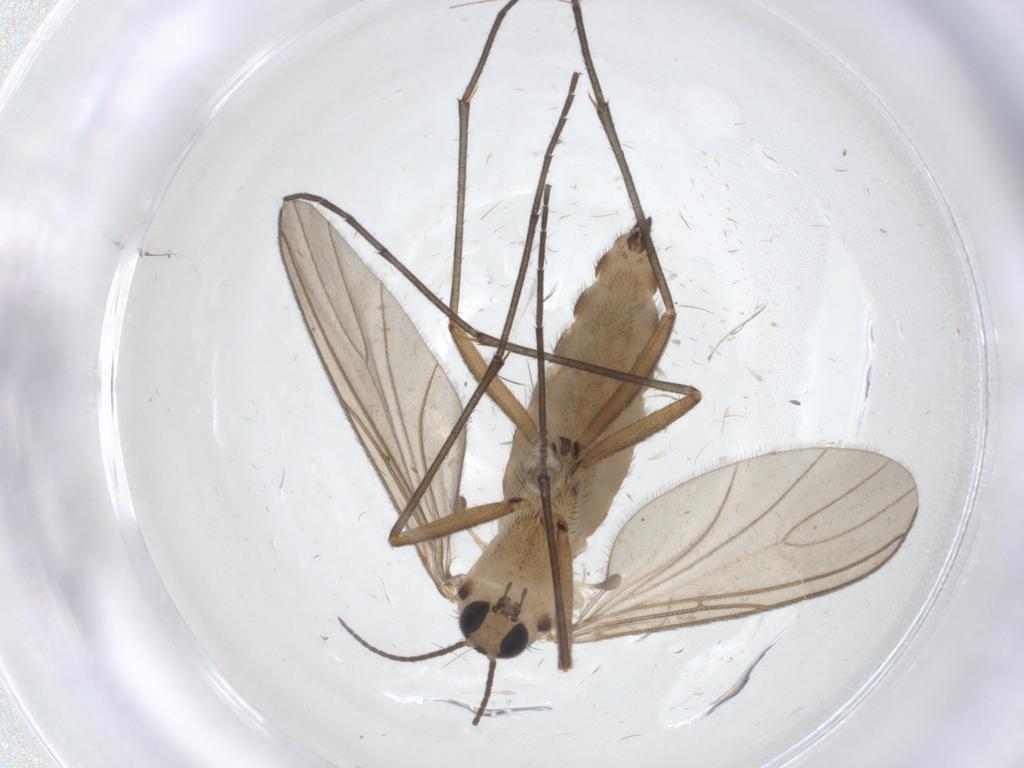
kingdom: Animalia
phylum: Arthropoda
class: Insecta
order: Diptera
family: Sciaridae
